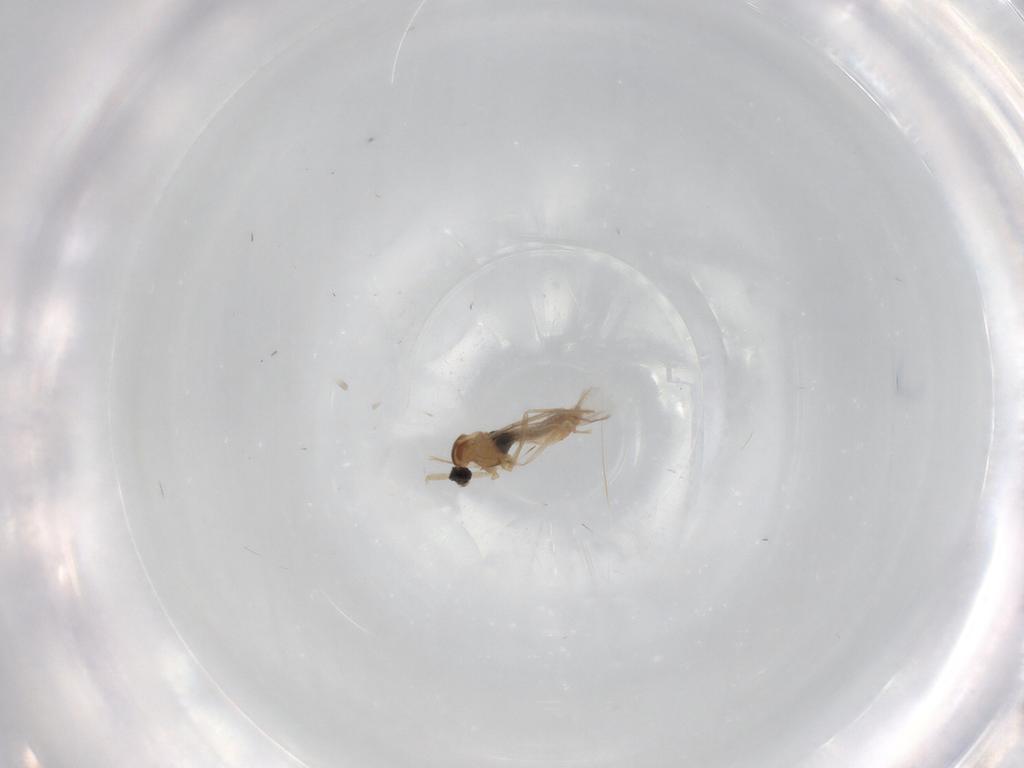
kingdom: Animalia
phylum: Arthropoda
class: Insecta
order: Diptera
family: Cecidomyiidae
